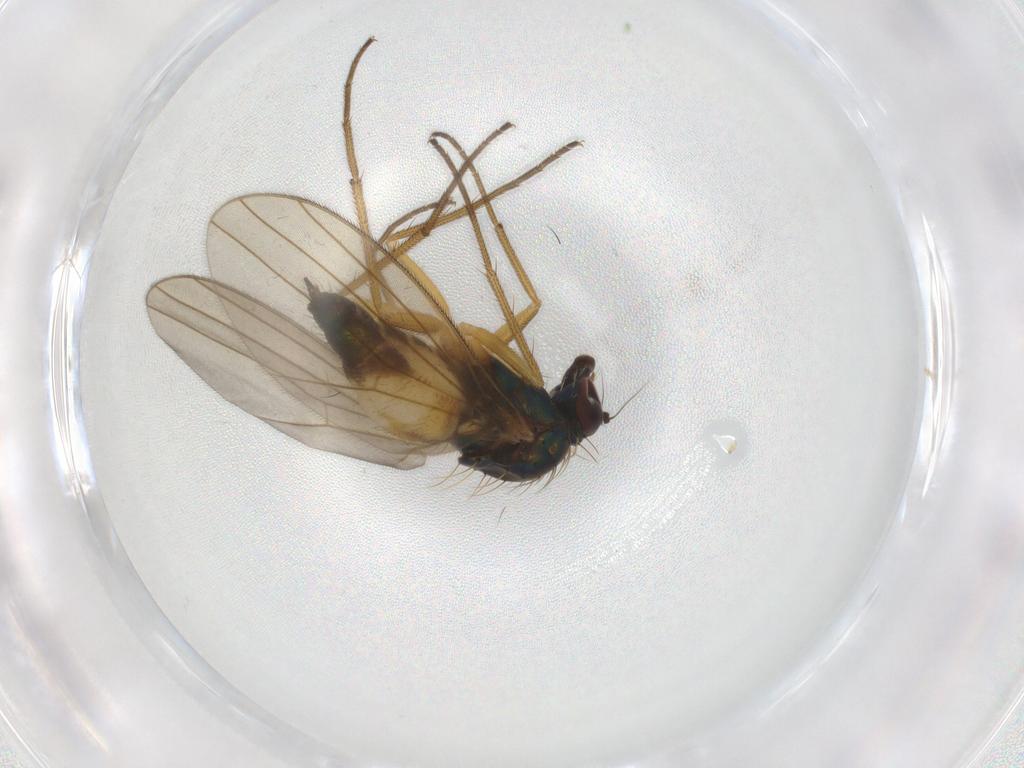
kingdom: Animalia
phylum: Arthropoda
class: Insecta
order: Diptera
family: Dolichopodidae
